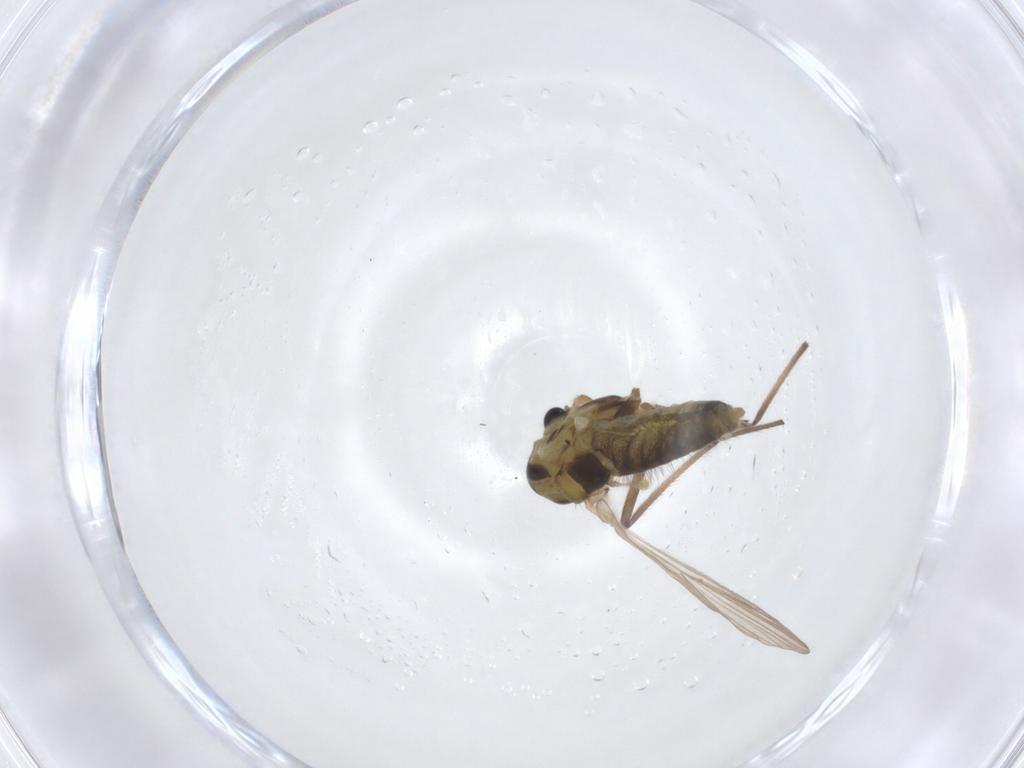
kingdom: Animalia
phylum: Arthropoda
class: Insecta
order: Diptera
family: Chironomidae
